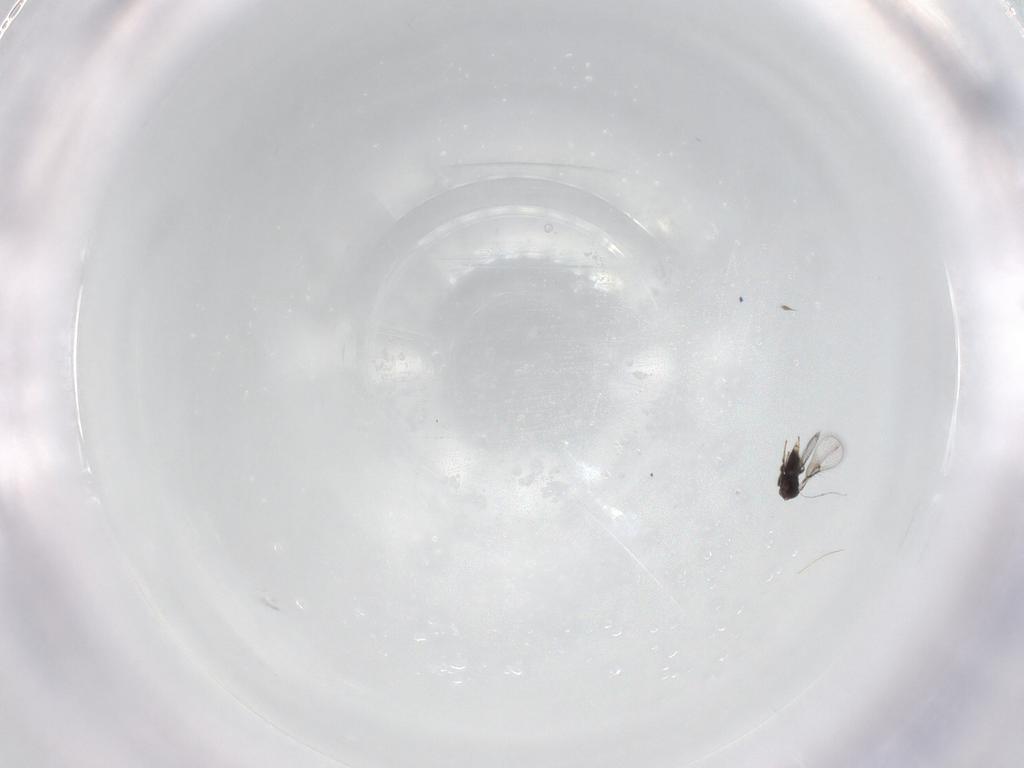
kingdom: Animalia
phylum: Arthropoda
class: Insecta
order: Hymenoptera
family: Trichogrammatidae
